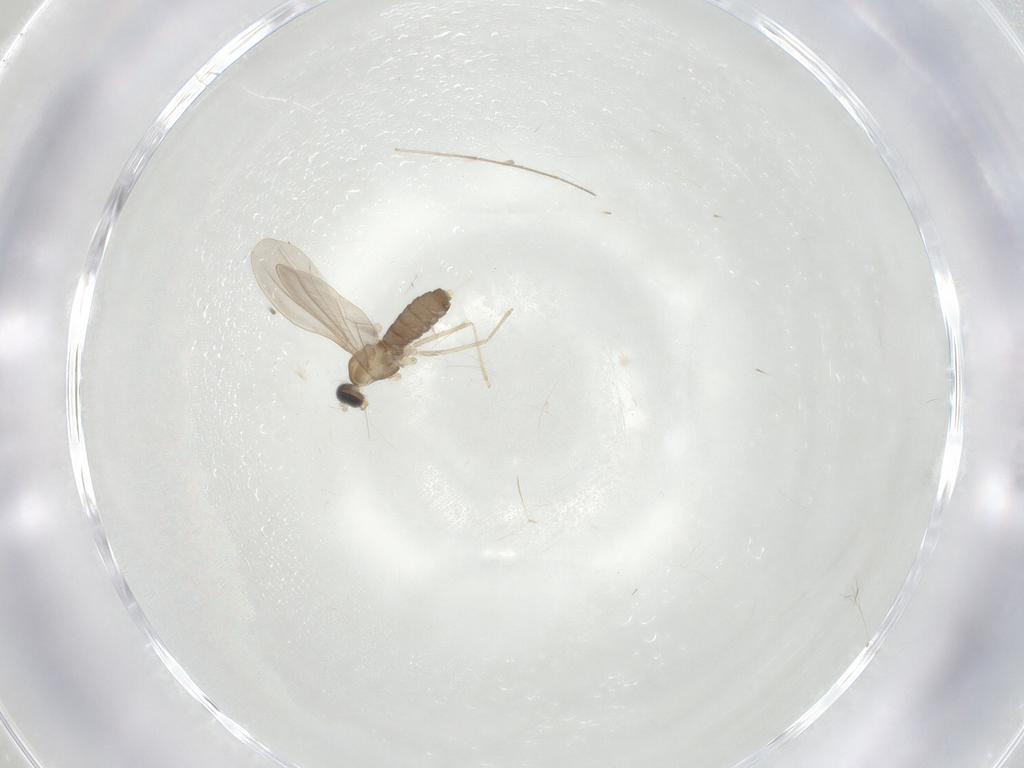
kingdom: Animalia
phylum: Arthropoda
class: Insecta
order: Diptera
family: Cecidomyiidae
